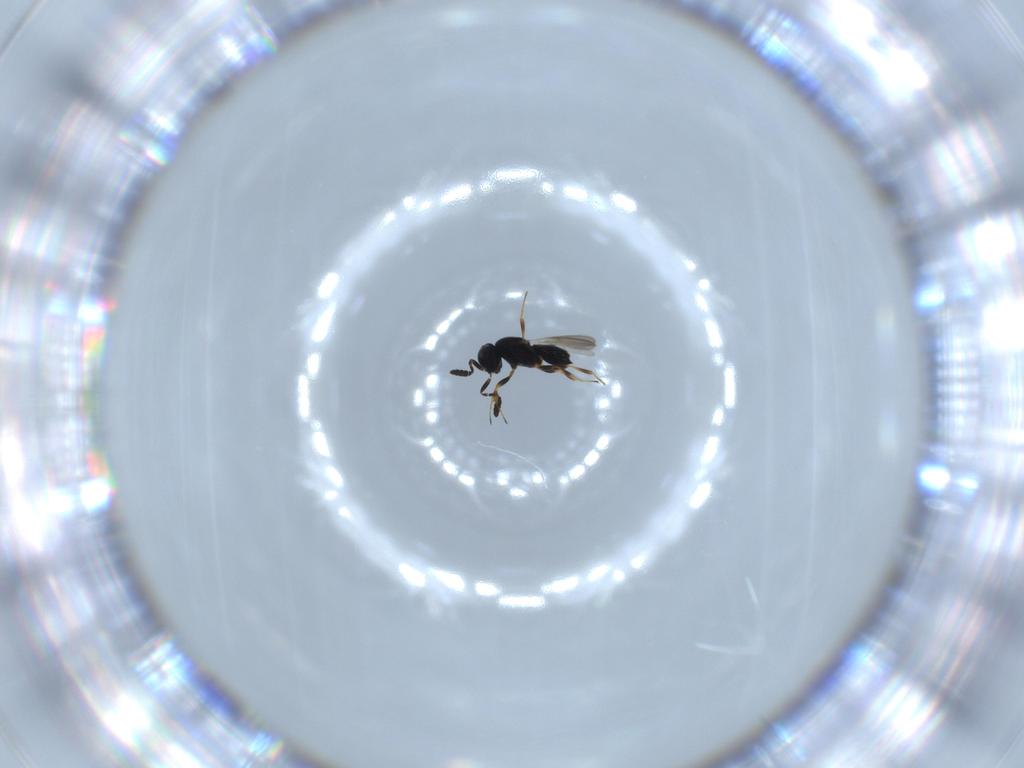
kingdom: Animalia
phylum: Arthropoda
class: Insecta
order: Hymenoptera
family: Scelionidae
